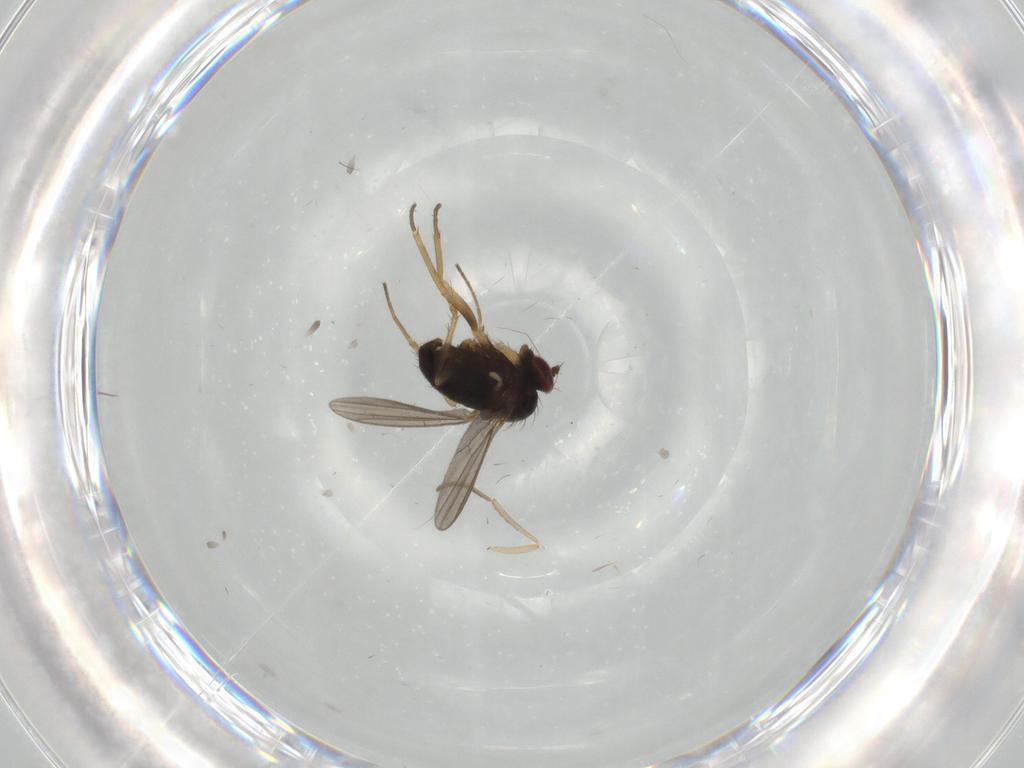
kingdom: Animalia
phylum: Arthropoda
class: Insecta
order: Diptera
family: Dolichopodidae
